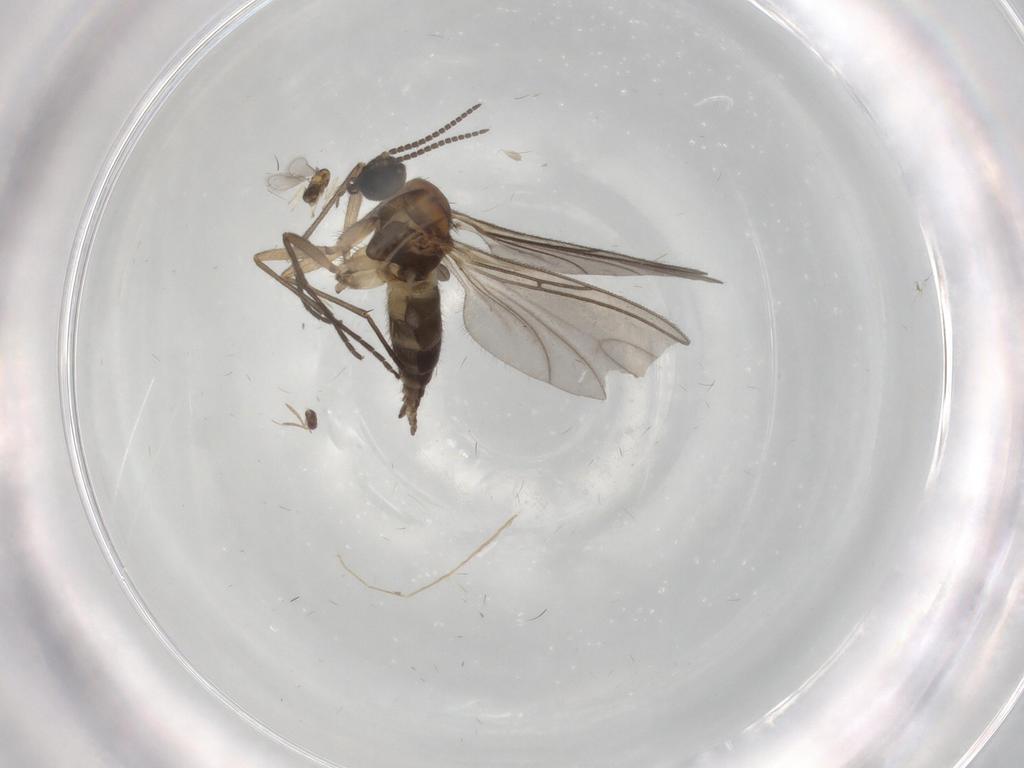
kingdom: Animalia
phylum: Arthropoda
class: Insecta
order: Diptera
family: Sciaridae
